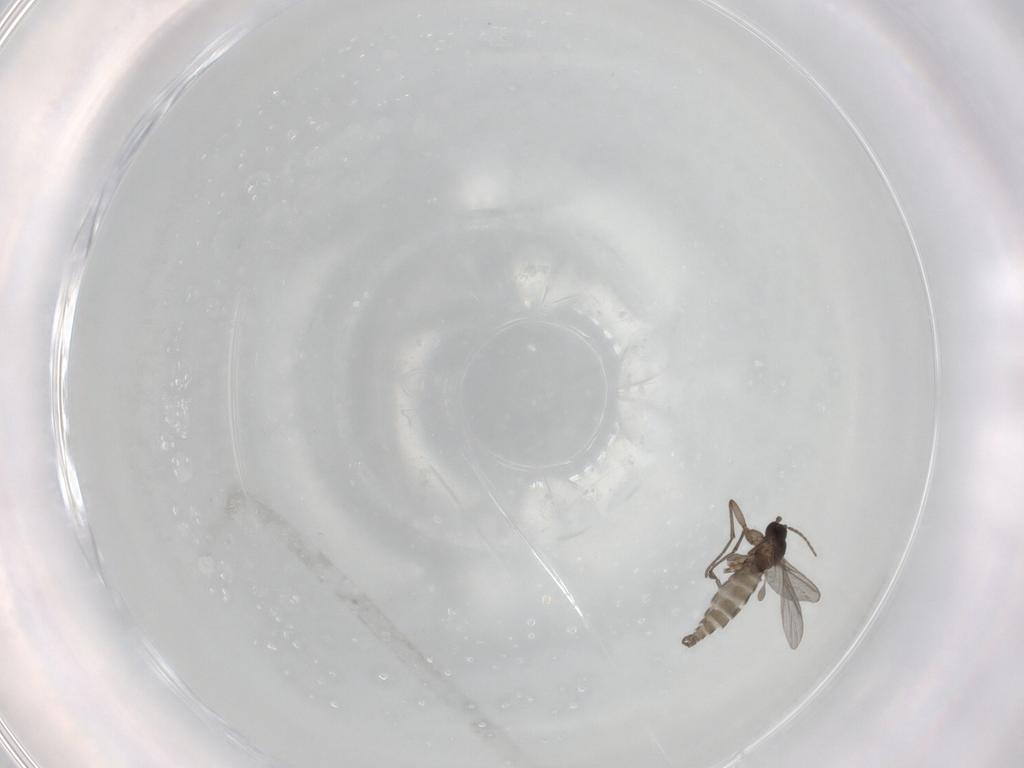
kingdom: Animalia
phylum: Arthropoda
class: Insecta
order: Diptera
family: Sciaridae
